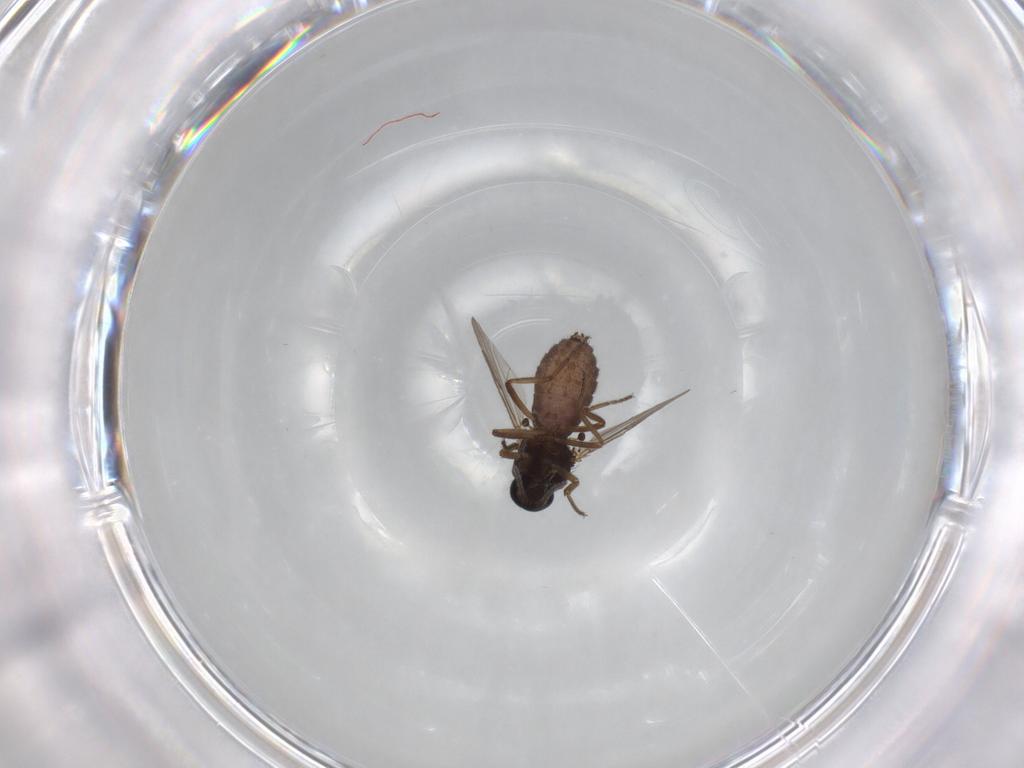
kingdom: Animalia
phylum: Arthropoda
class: Insecta
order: Diptera
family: Ceratopogonidae
